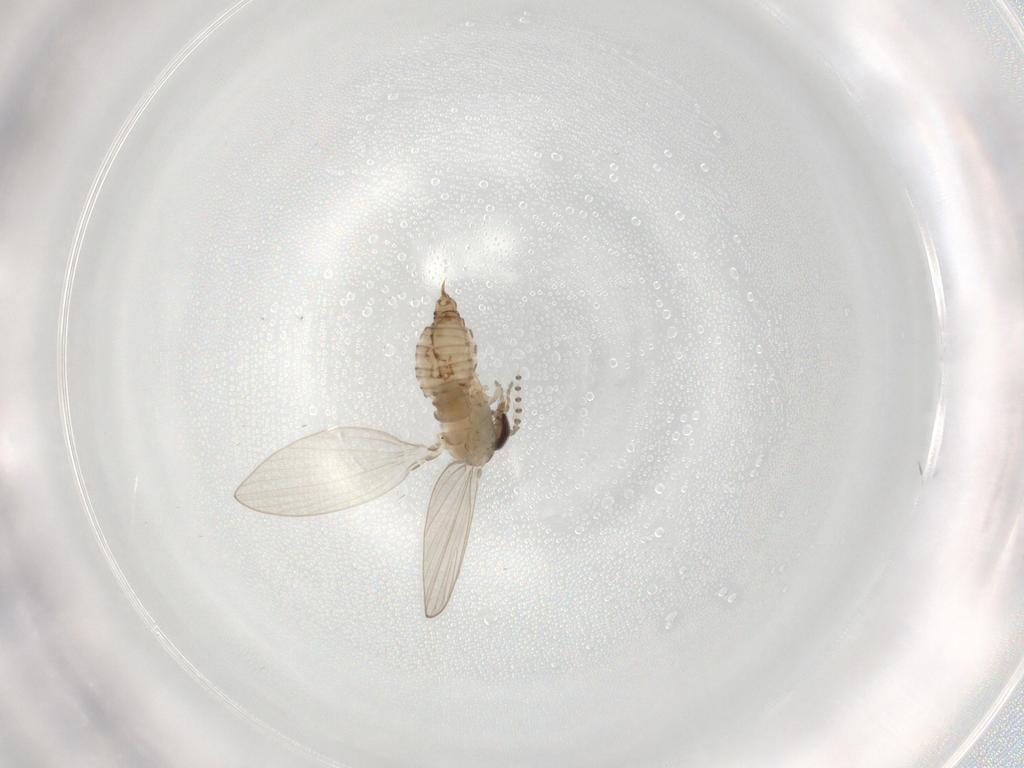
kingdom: Animalia
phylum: Arthropoda
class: Insecta
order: Diptera
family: Psychodidae
